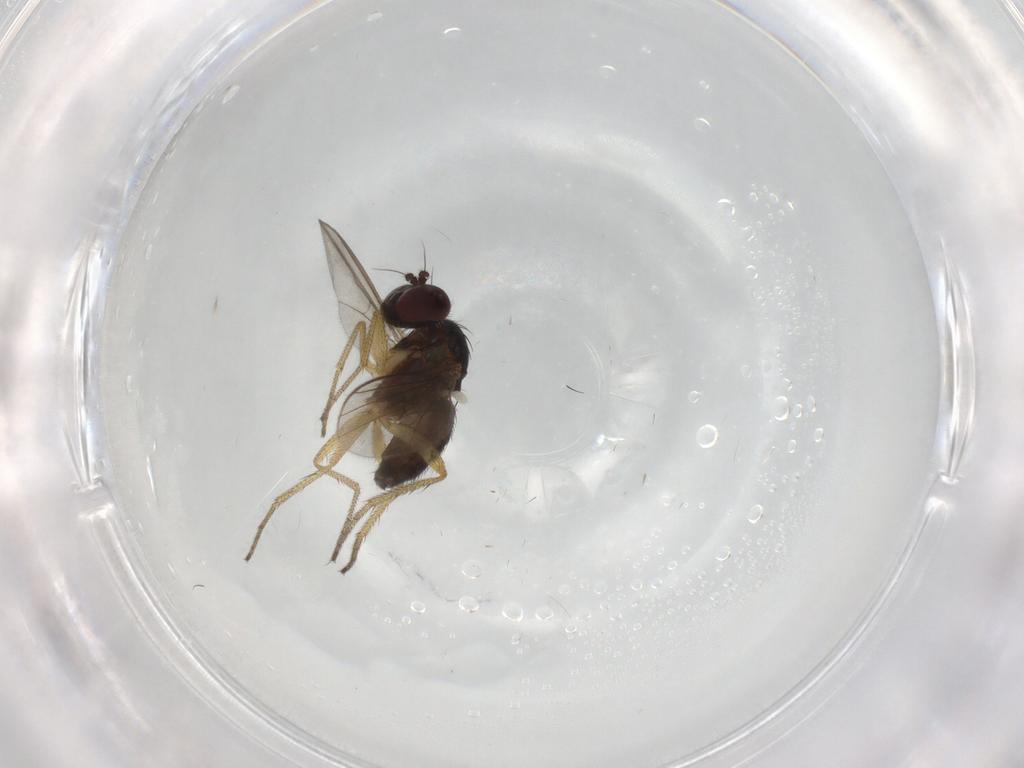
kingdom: Animalia
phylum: Arthropoda
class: Insecta
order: Diptera
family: Dolichopodidae
